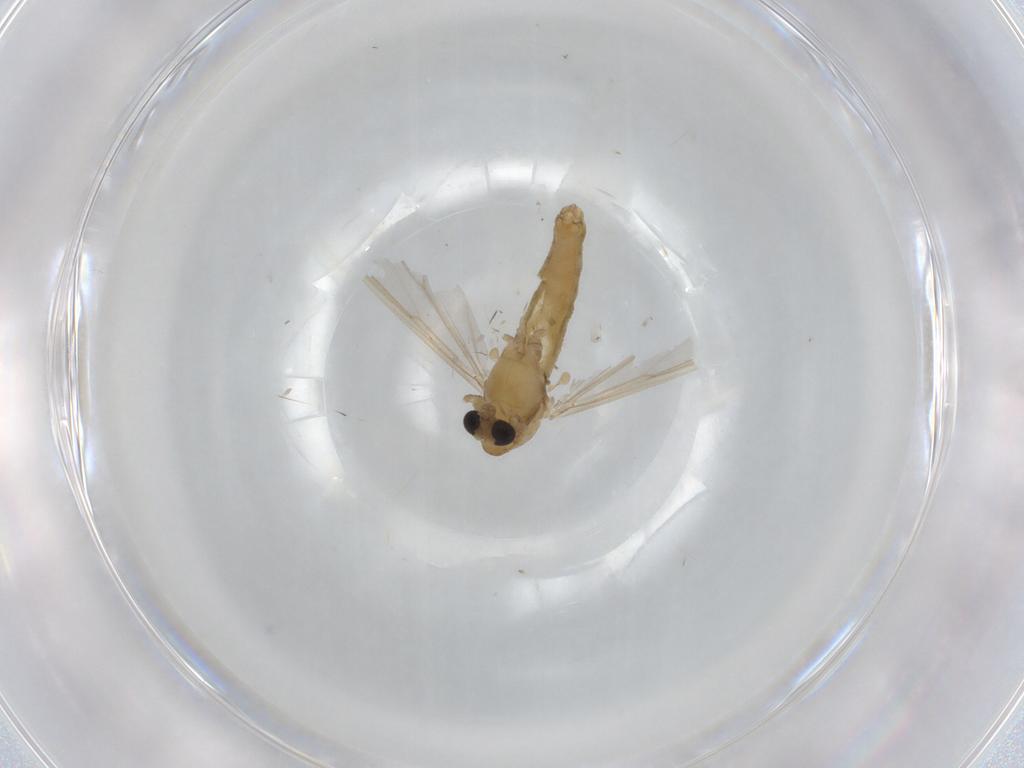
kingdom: Animalia
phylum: Arthropoda
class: Insecta
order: Diptera
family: Chironomidae
